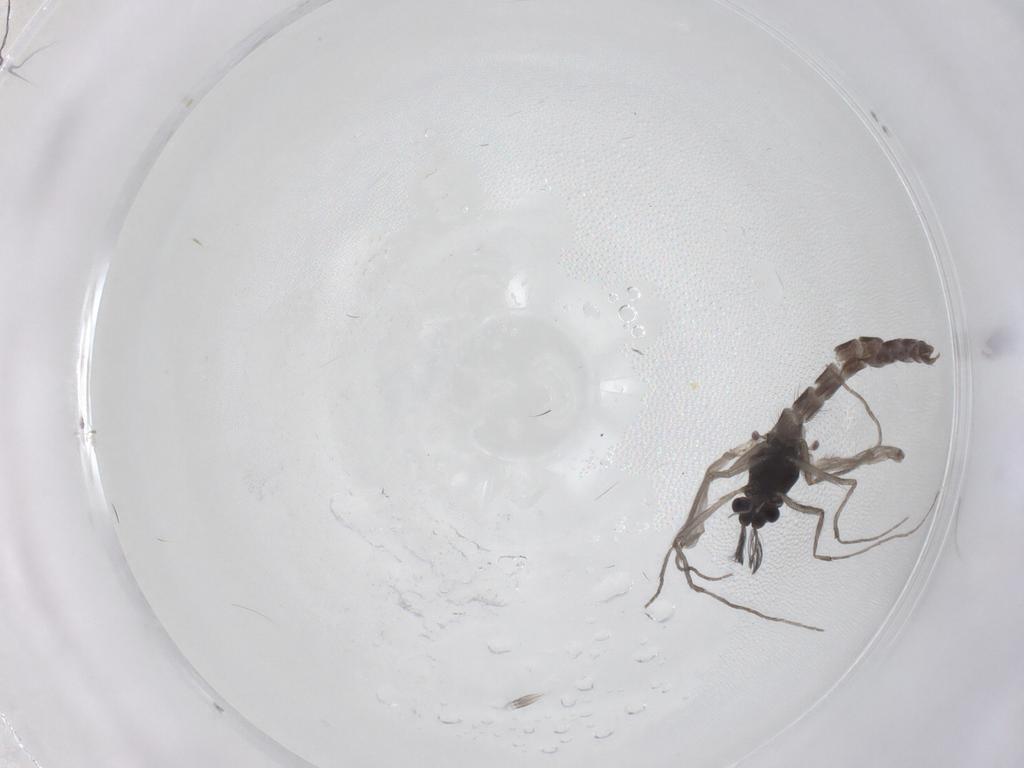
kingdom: Animalia
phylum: Arthropoda
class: Insecta
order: Diptera
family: Chironomidae
